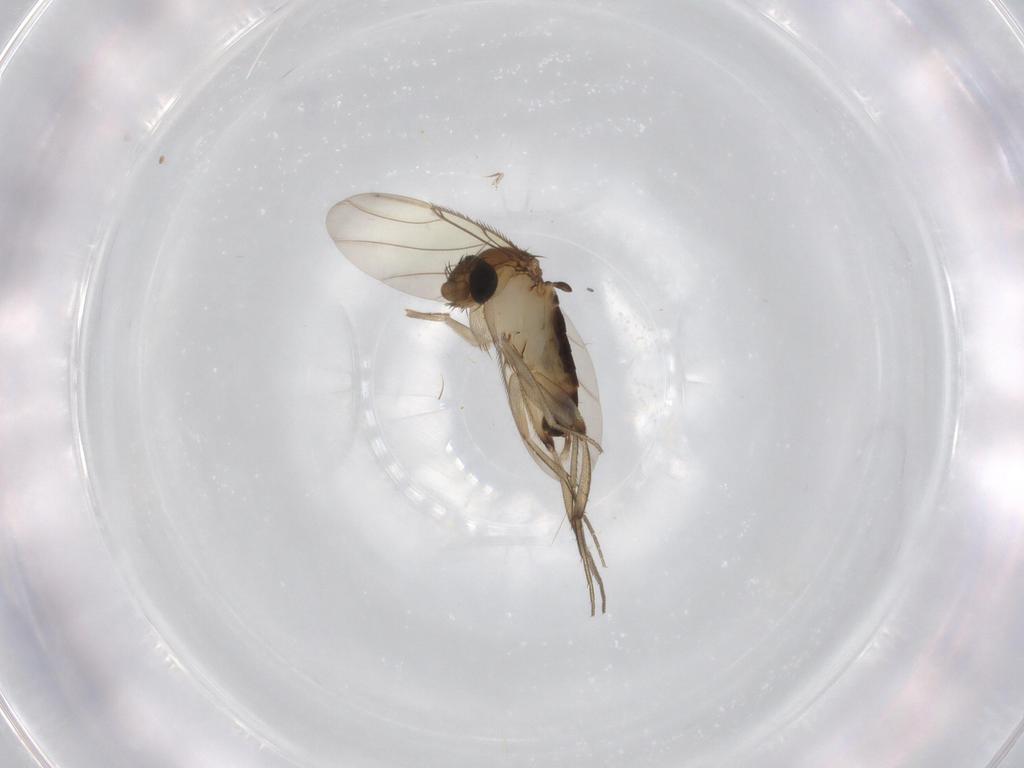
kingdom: Animalia
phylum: Arthropoda
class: Insecta
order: Diptera
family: Phoridae
